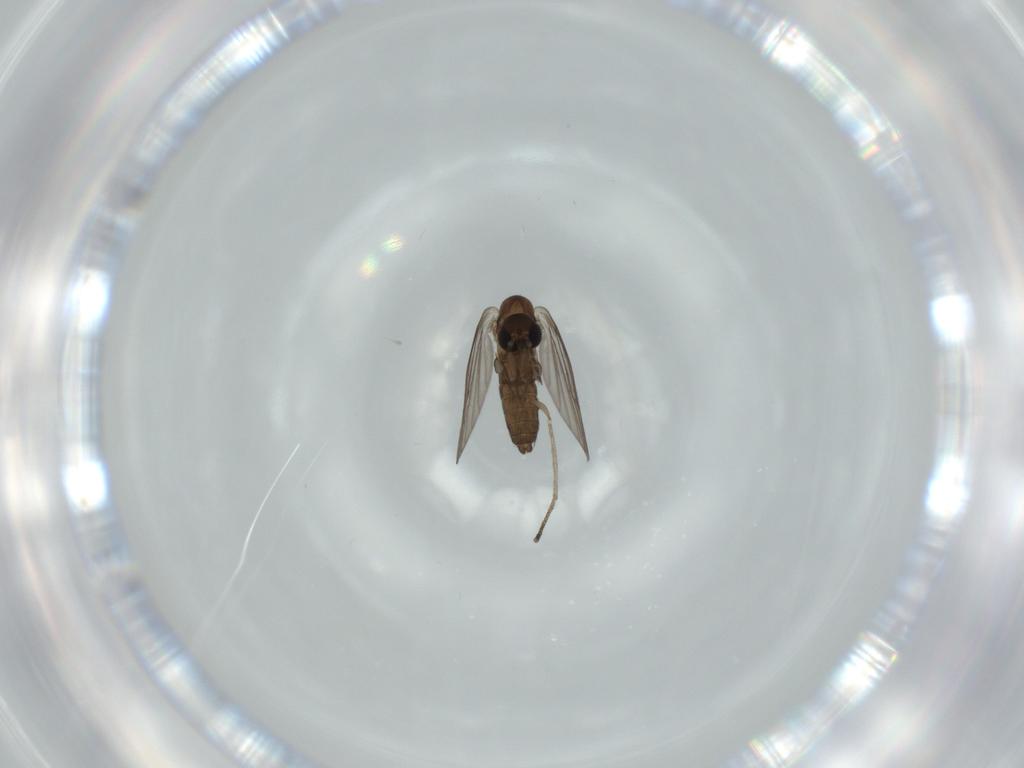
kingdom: Animalia
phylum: Arthropoda
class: Insecta
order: Diptera
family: Psychodidae
